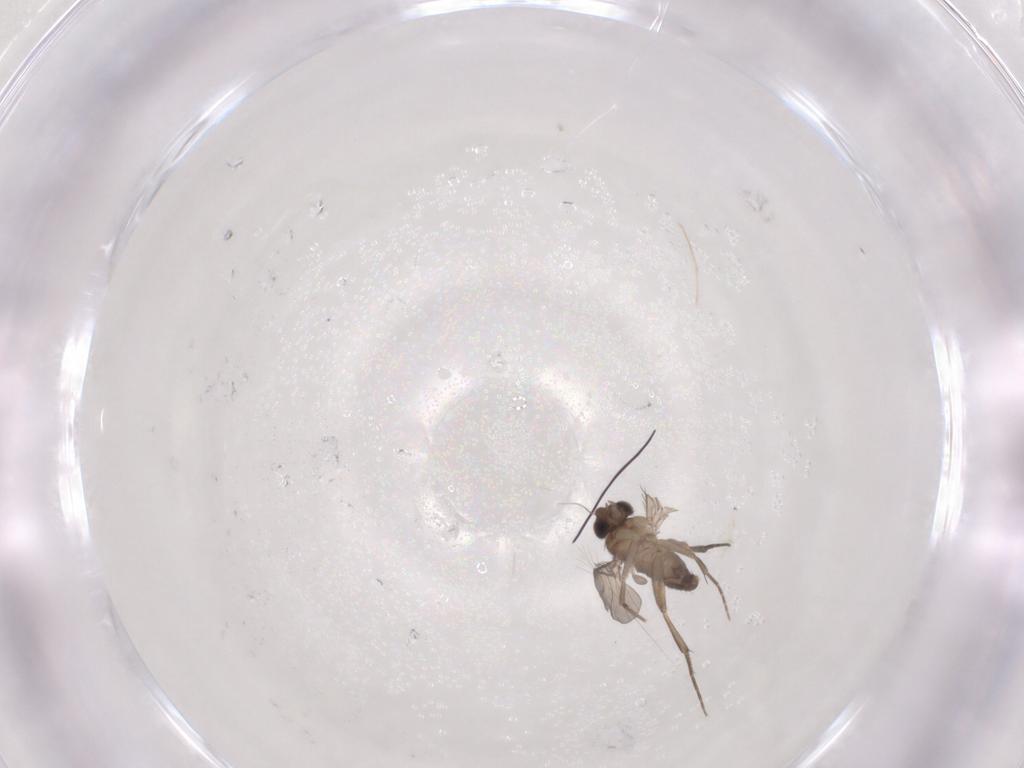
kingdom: Animalia
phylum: Arthropoda
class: Insecta
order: Diptera
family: Phoridae
